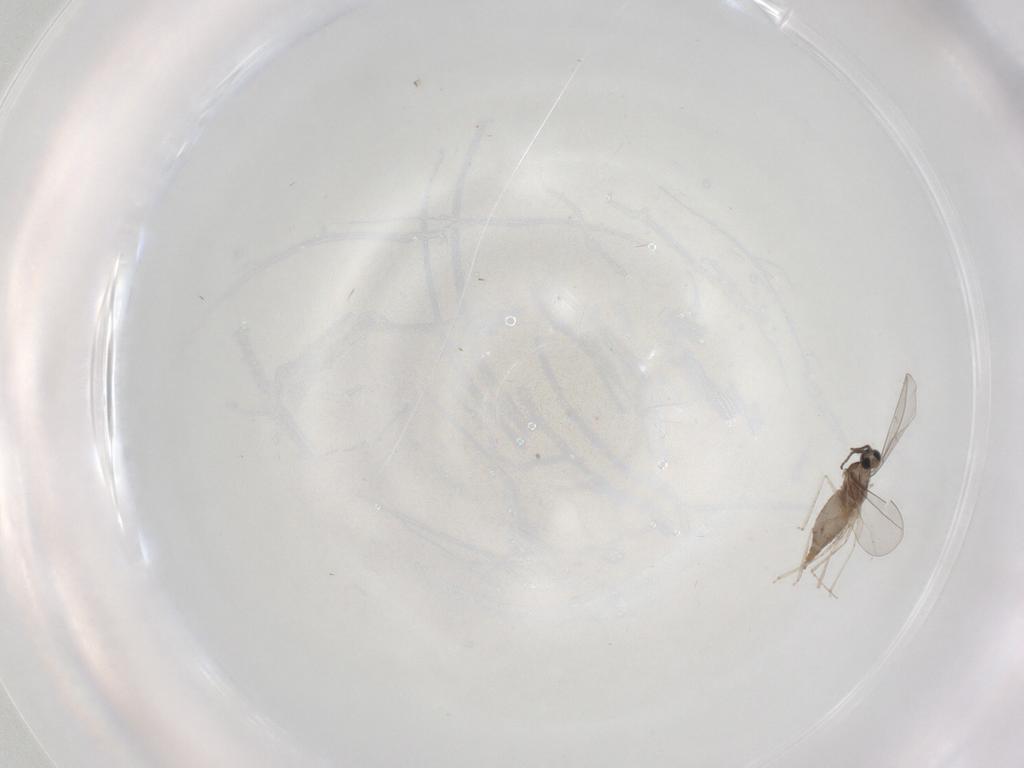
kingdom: Animalia
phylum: Arthropoda
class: Insecta
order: Diptera
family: Cecidomyiidae
